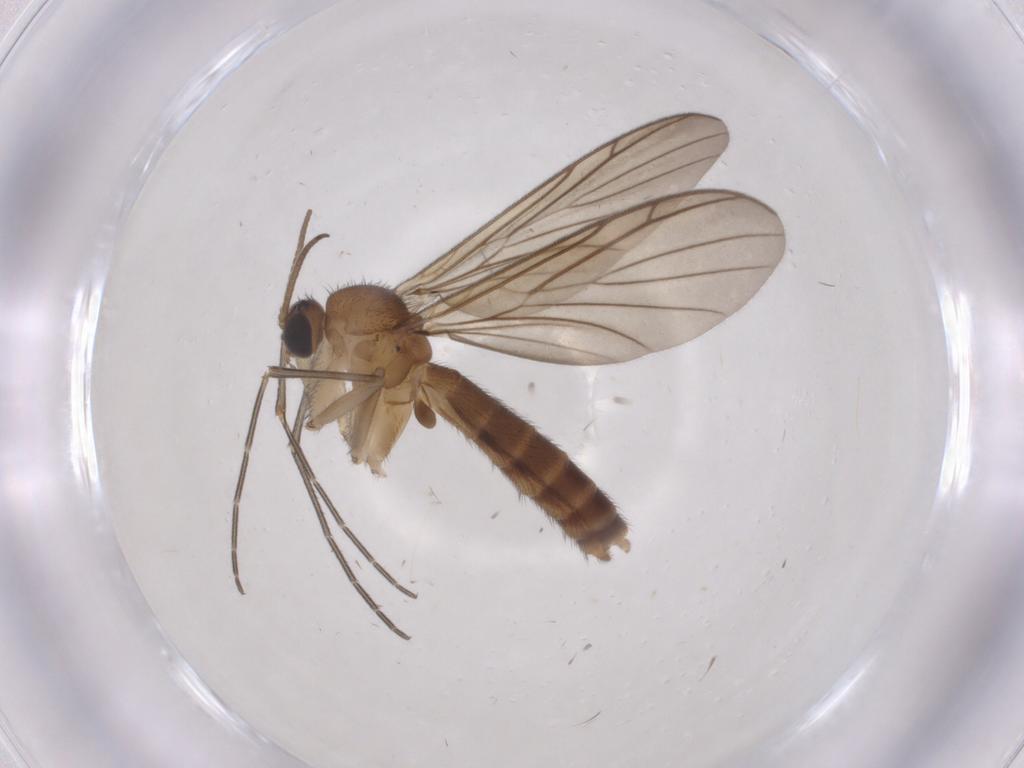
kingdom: Animalia
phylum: Arthropoda
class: Insecta
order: Diptera
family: Keroplatidae
